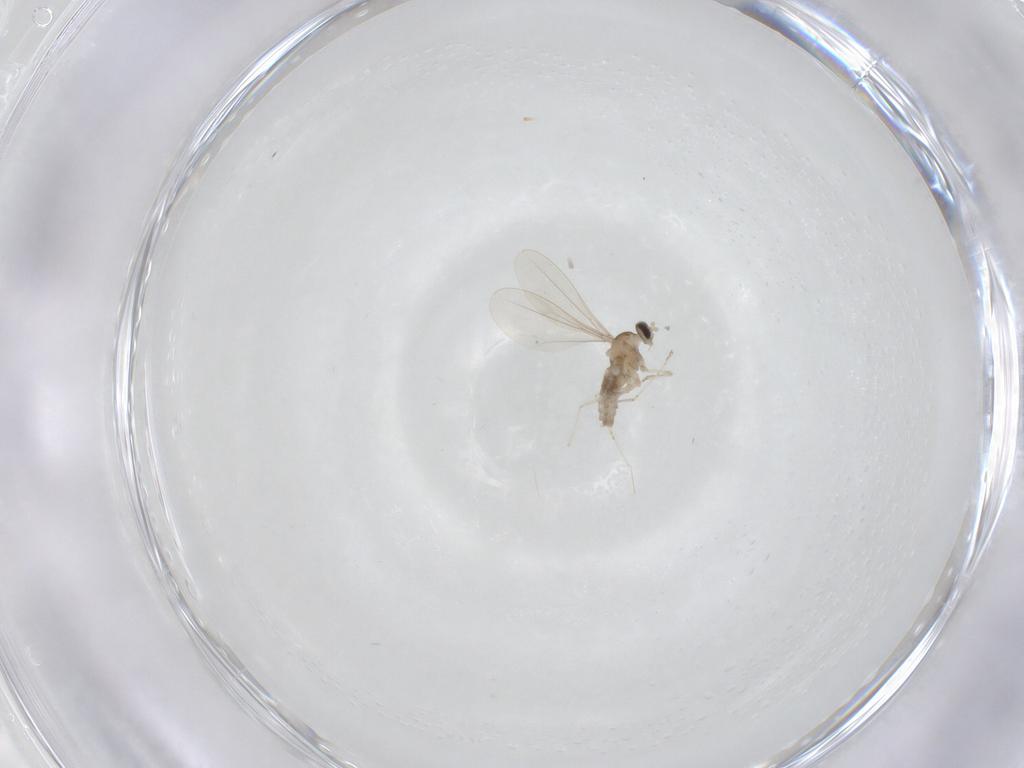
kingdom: Animalia
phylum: Arthropoda
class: Insecta
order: Diptera
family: Cecidomyiidae
